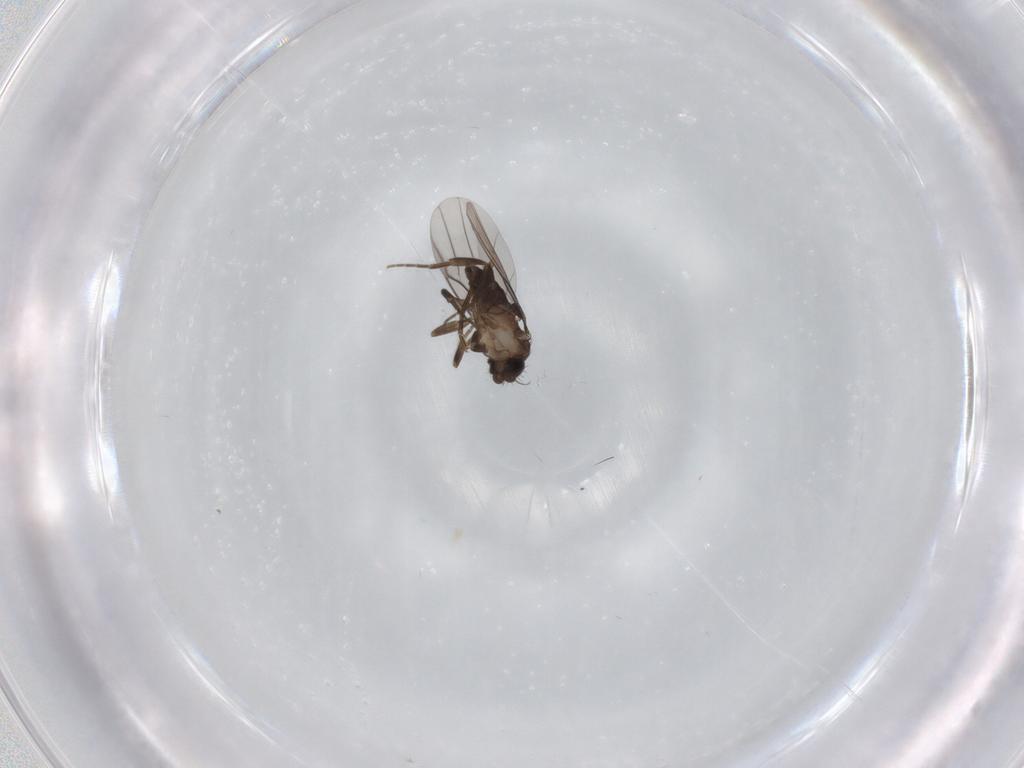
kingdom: Animalia
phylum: Arthropoda
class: Insecta
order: Diptera
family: Phoridae
